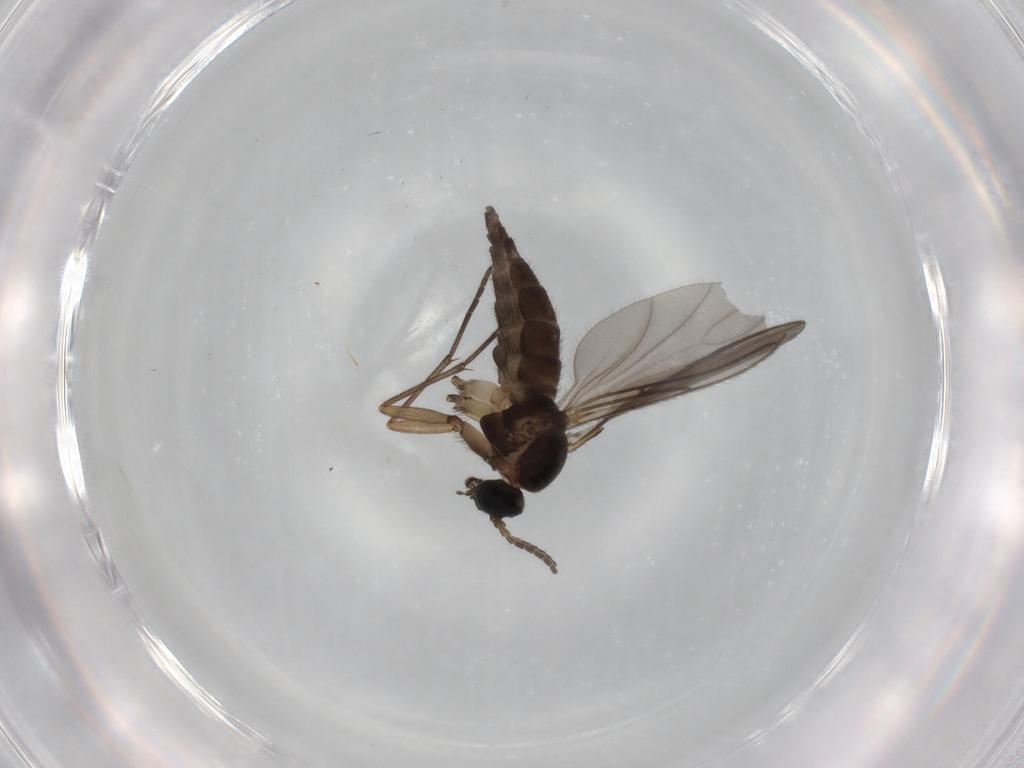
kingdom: Animalia
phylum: Arthropoda
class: Insecta
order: Diptera
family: Sciaridae
